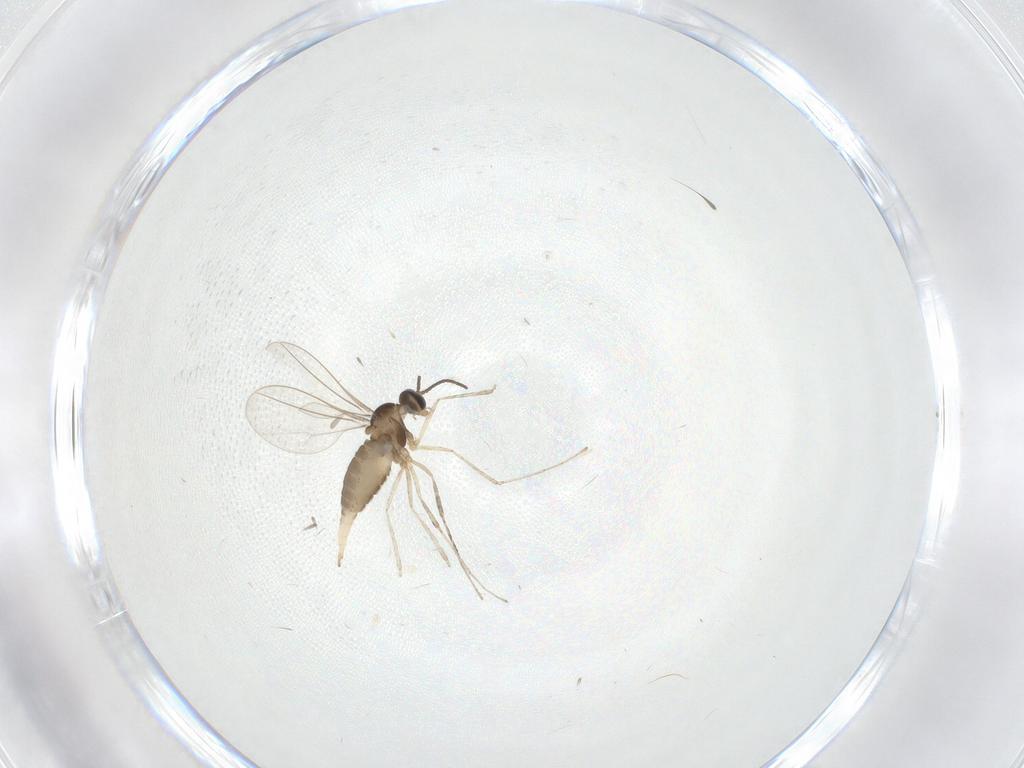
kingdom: Animalia
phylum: Arthropoda
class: Insecta
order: Diptera
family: Cecidomyiidae
